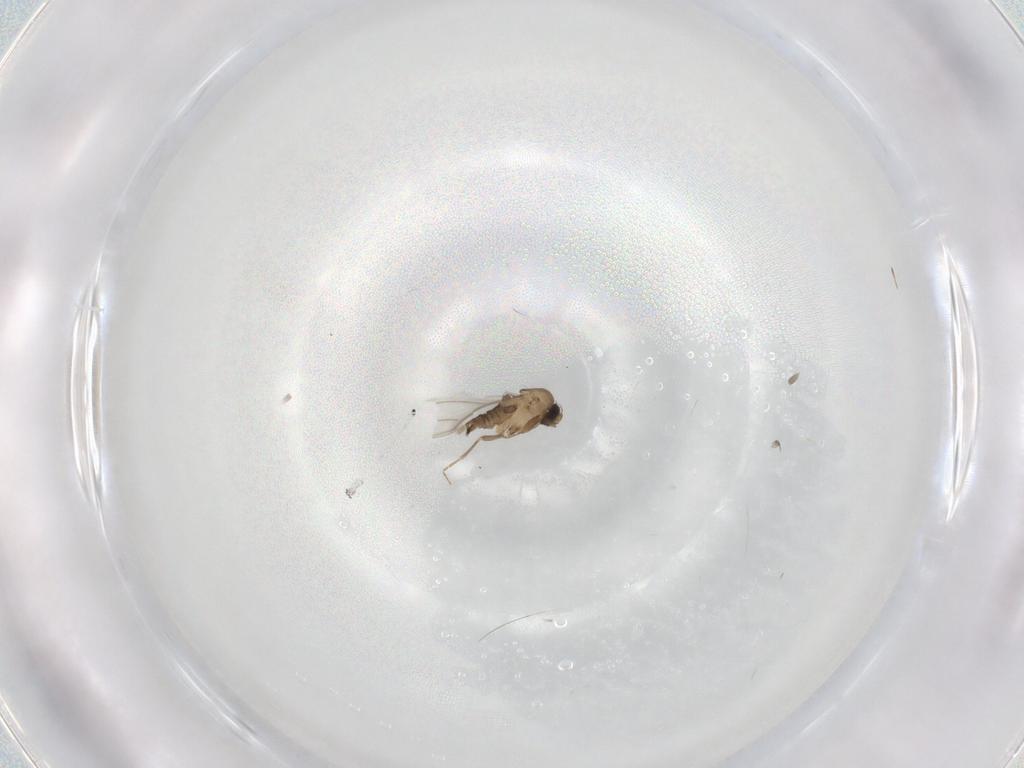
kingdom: Animalia
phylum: Arthropoda
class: Insecta
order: Diptera
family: Chironomidae
